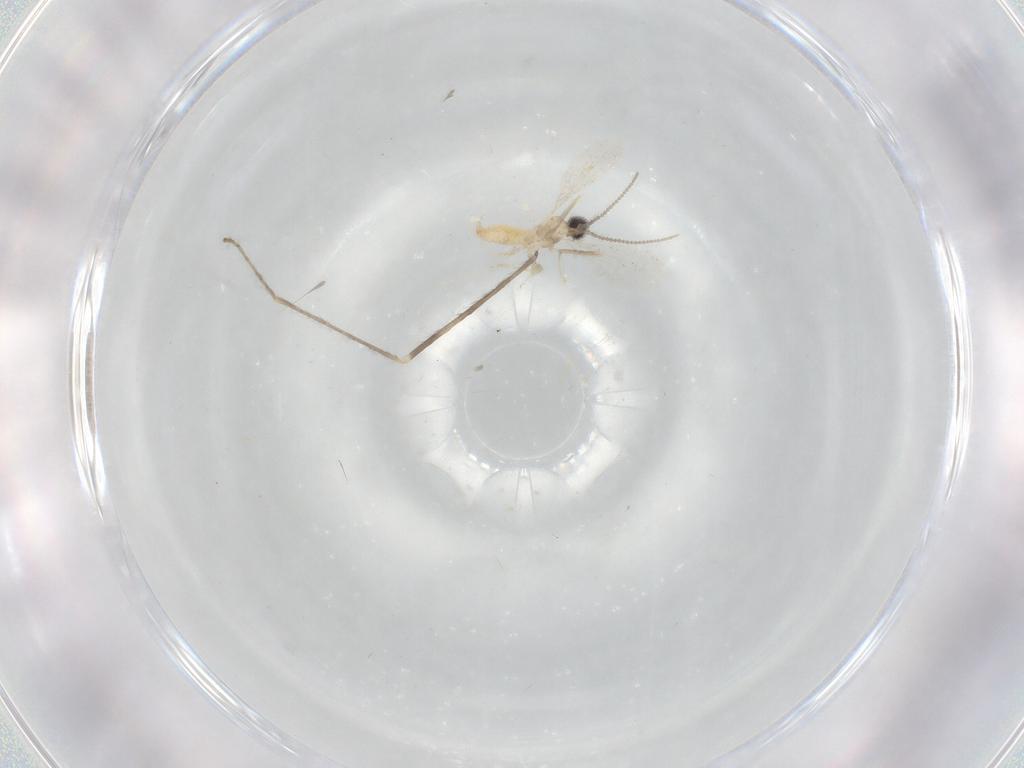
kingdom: Animalia
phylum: Arthropoda
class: Insecta
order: Diptera
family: Cecidomyiidae
